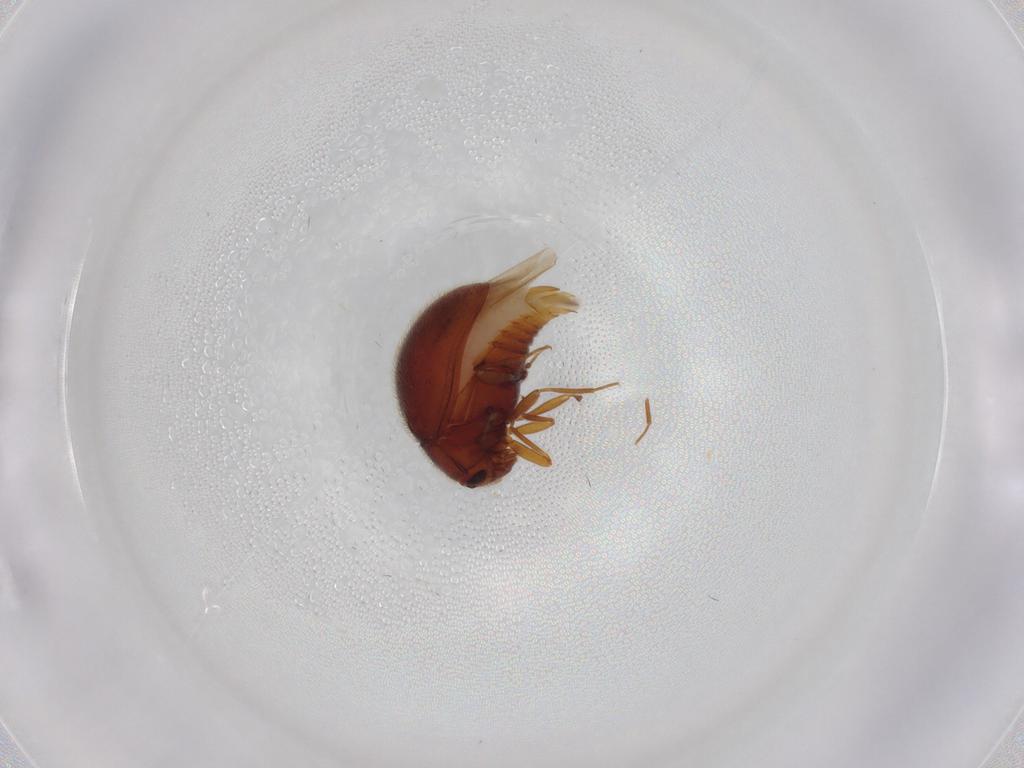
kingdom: Animalia
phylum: Arthropoda
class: Insecta
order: Coleoptera
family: Anamorphidae
